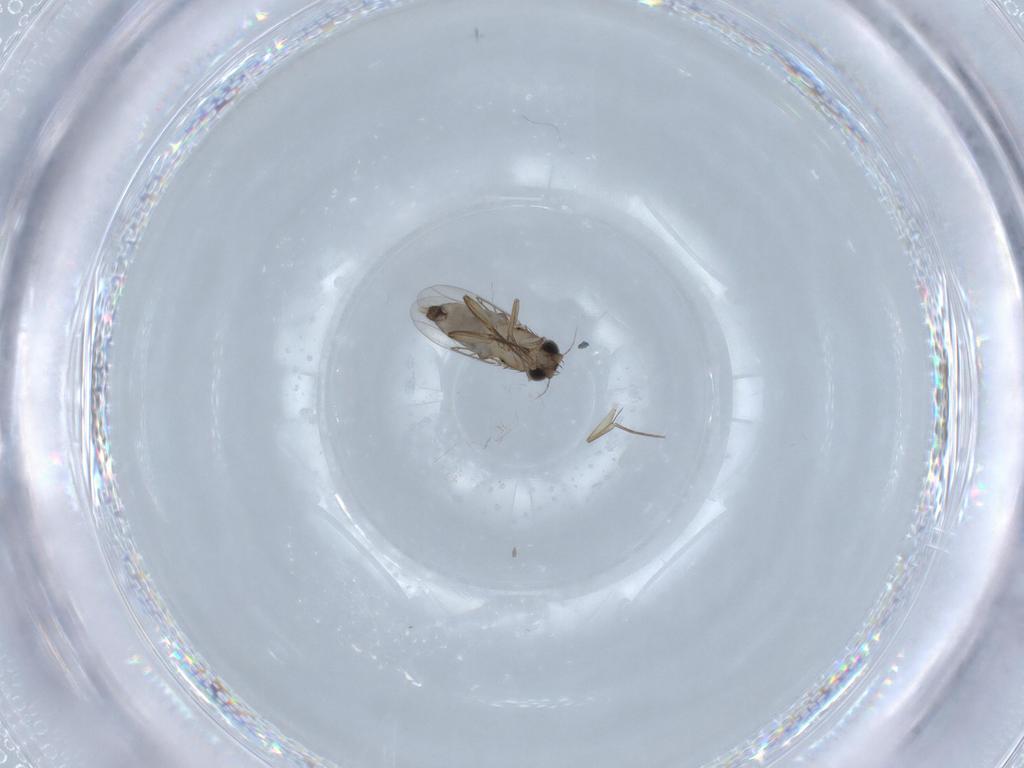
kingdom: Animalia
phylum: Arthropoda
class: Insecta
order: Diptera
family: Phoridae
